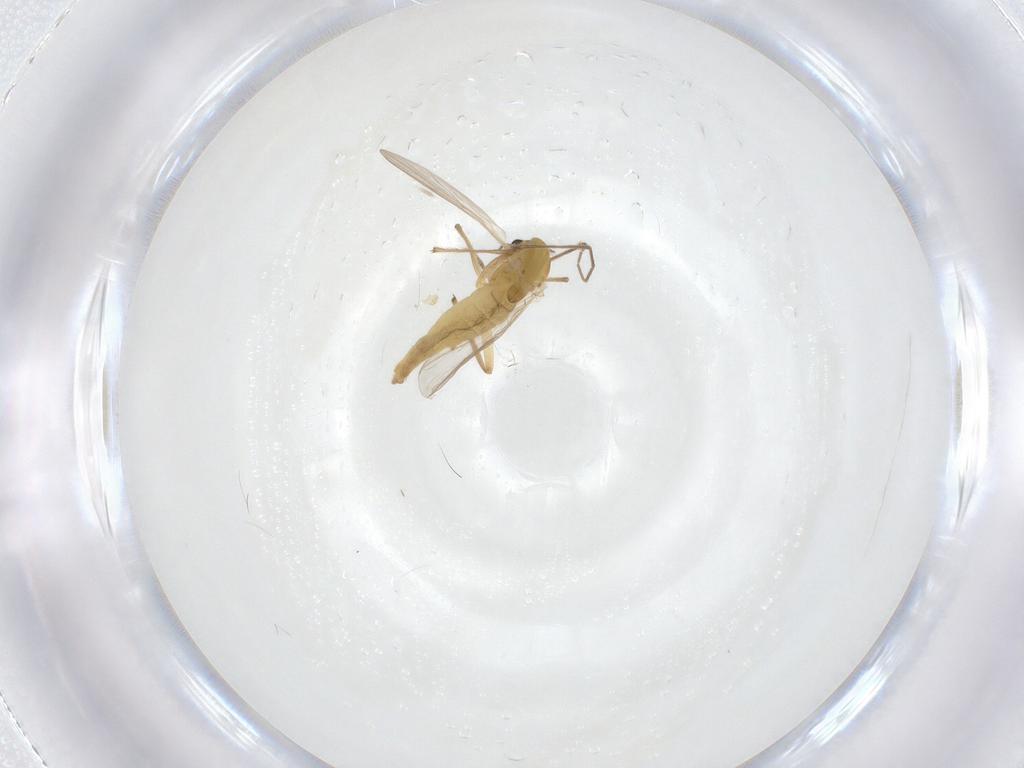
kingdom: Animalia
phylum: Arthropoda
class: Insecta
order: Diptera
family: Chironomidae
